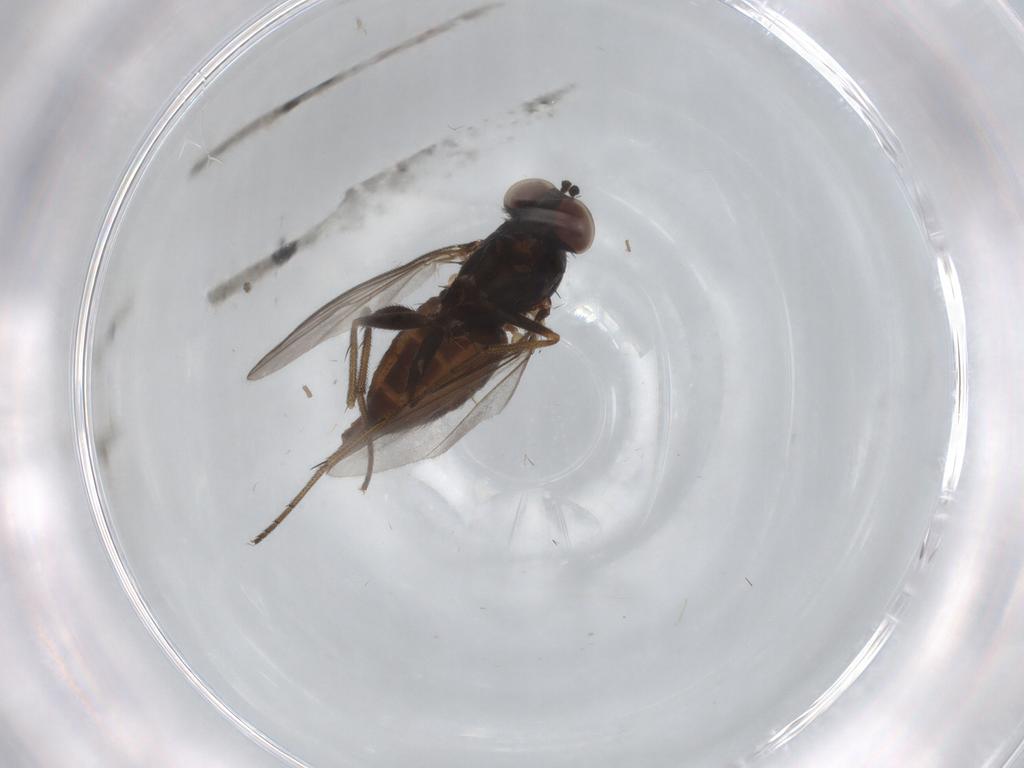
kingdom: Animalia
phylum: Arthropoda
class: Insecta
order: Diptera
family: Dolichopodidae
